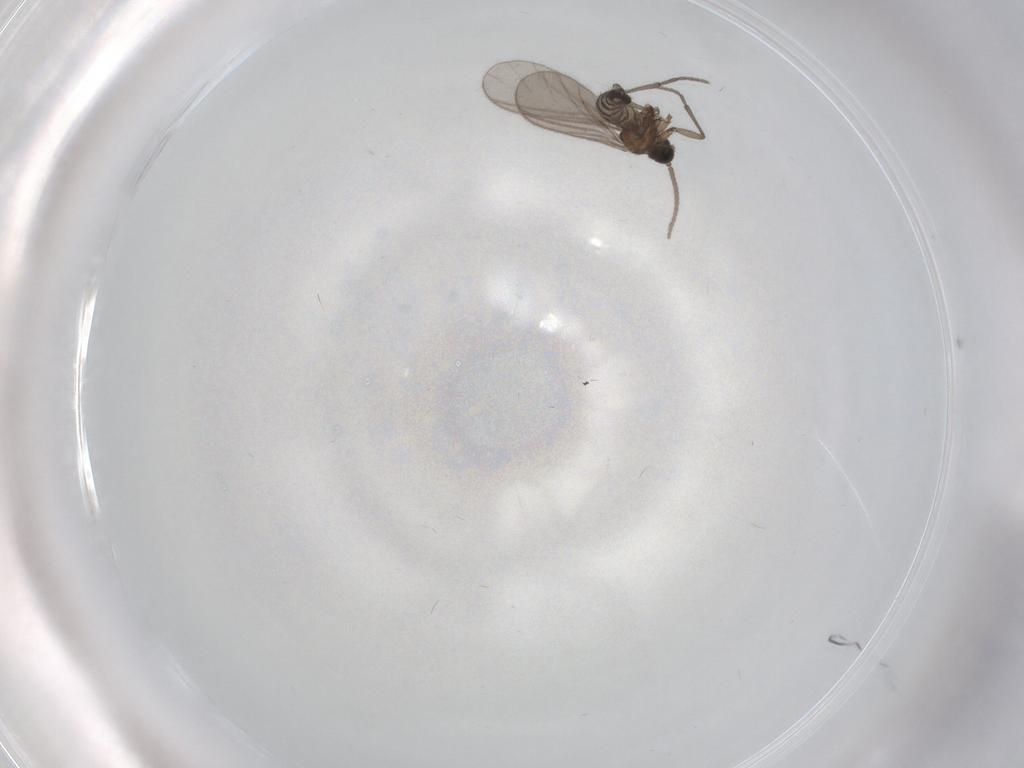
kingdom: Animalia
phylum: Arthropoda
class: Insecta
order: Diptera
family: Sciaridae
